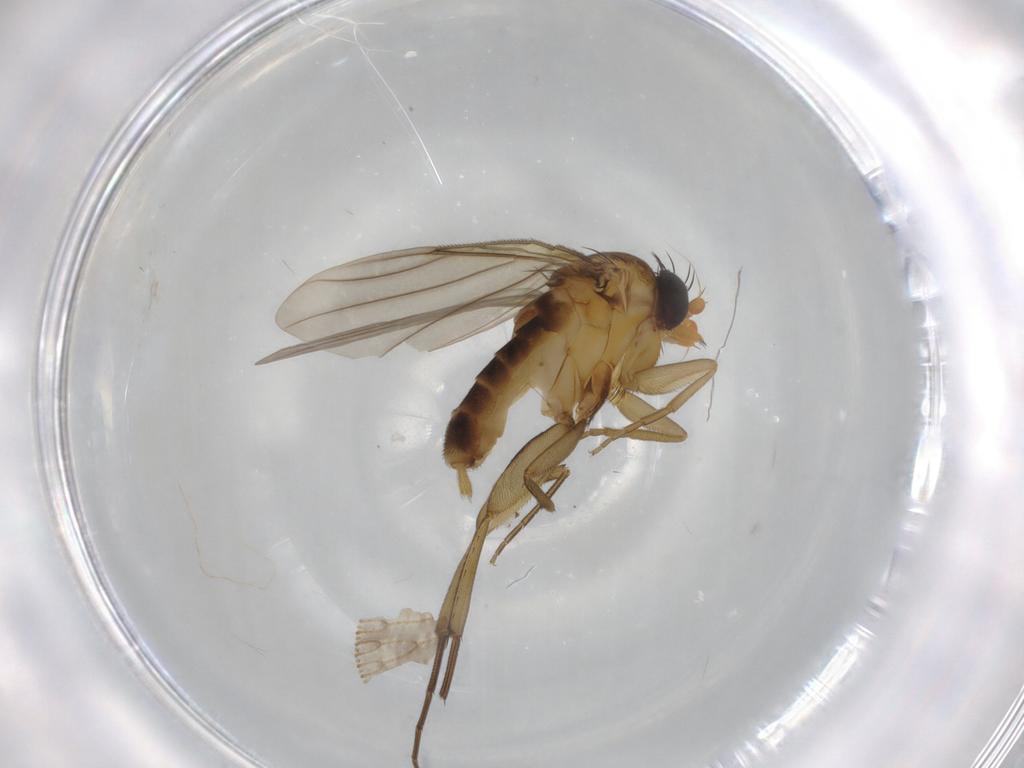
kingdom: Animalia
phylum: Arthropoda
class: Insecta
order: Diptera
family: Phoridae
